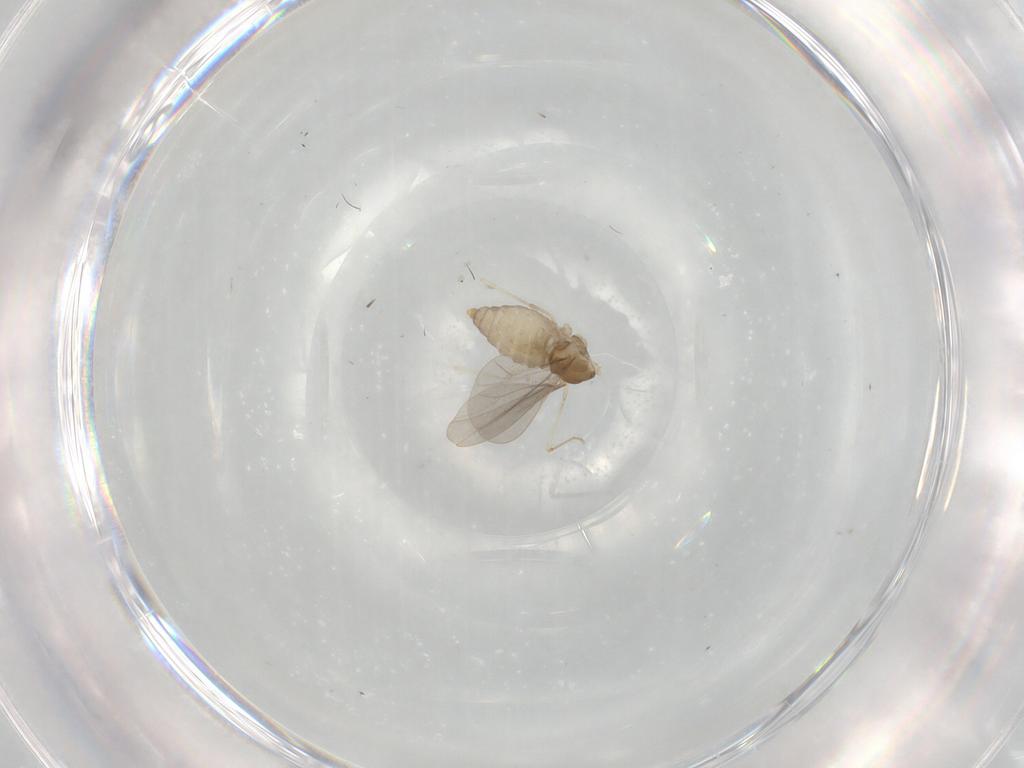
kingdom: Animalia
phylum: Arthropoda
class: Insecta
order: Diptera
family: Cecidomyiidae
